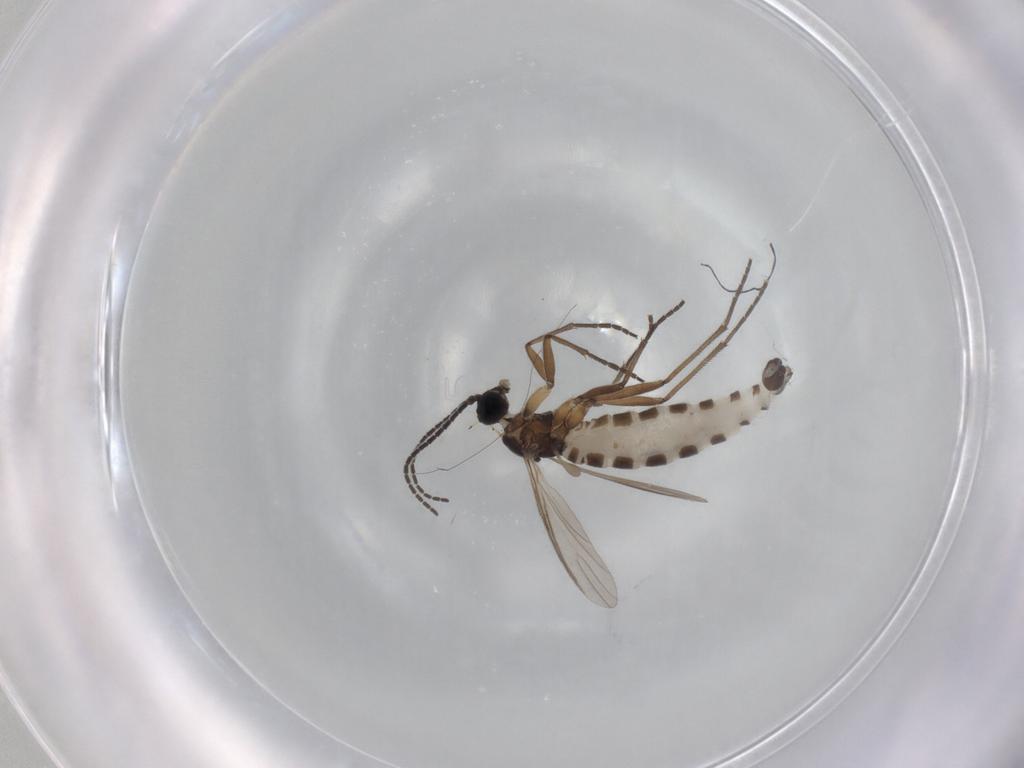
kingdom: Animalia
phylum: Arthropoda
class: Insecta
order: Diptera
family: Sciaridae
